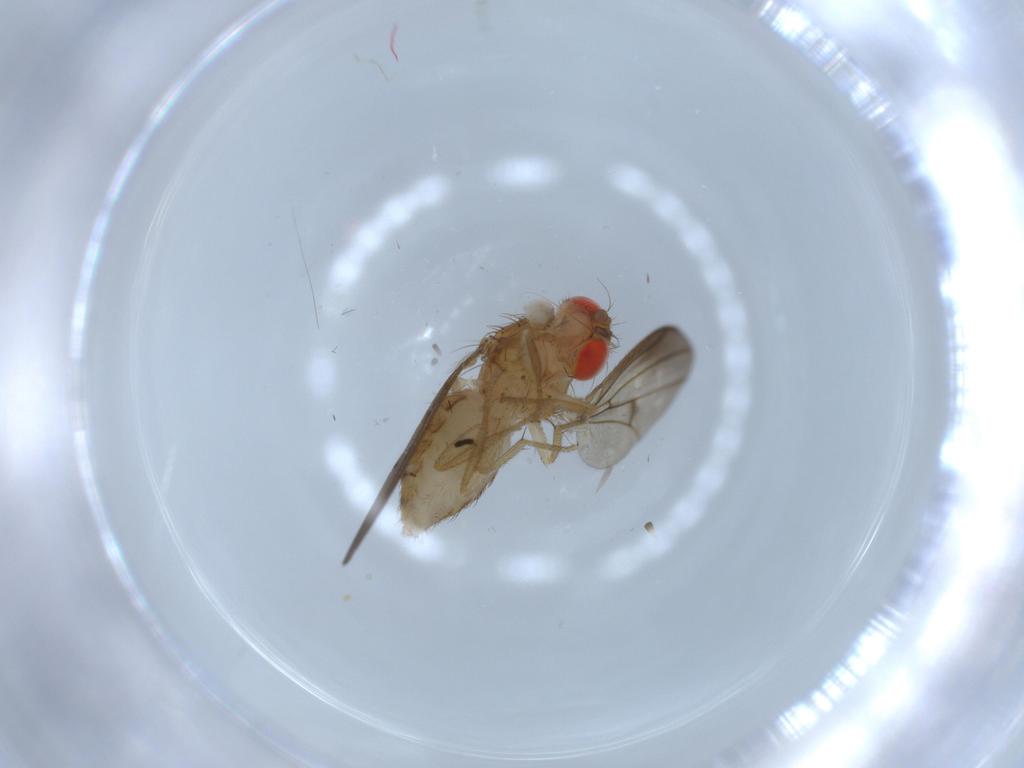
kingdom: Animalia
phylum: Arthropoda
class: Insecta
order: Diptera
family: Drosophilidae
